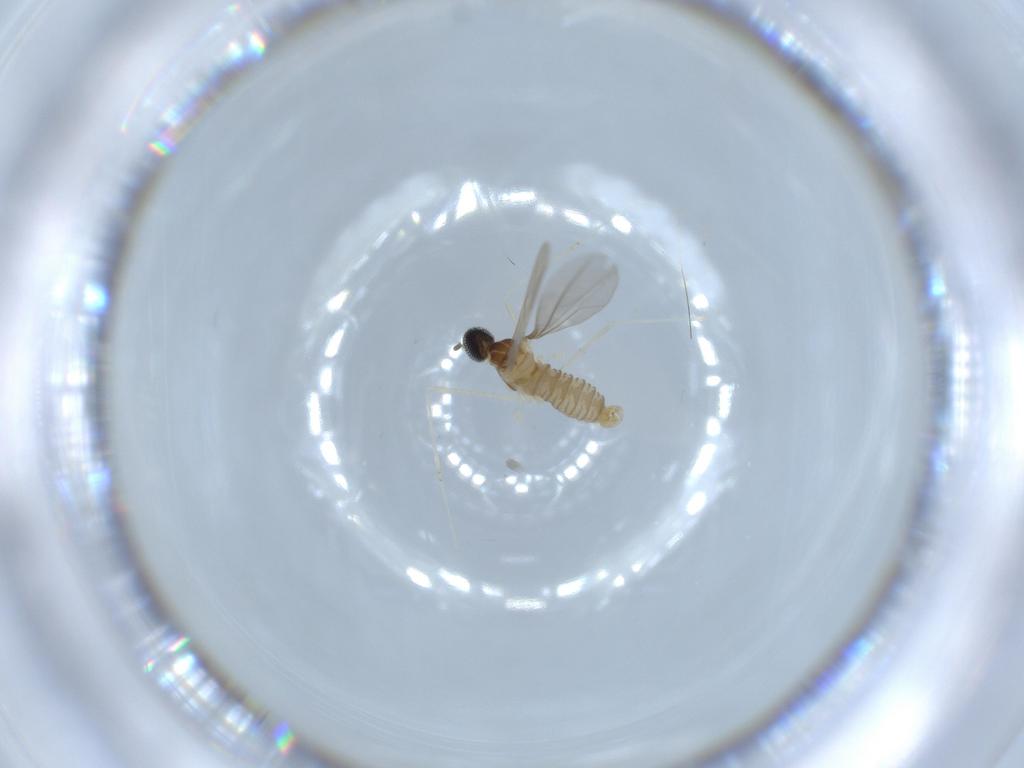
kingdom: Animalia
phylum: Arthropoda
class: Insecta
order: Diptera
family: Cecidomyiidae
